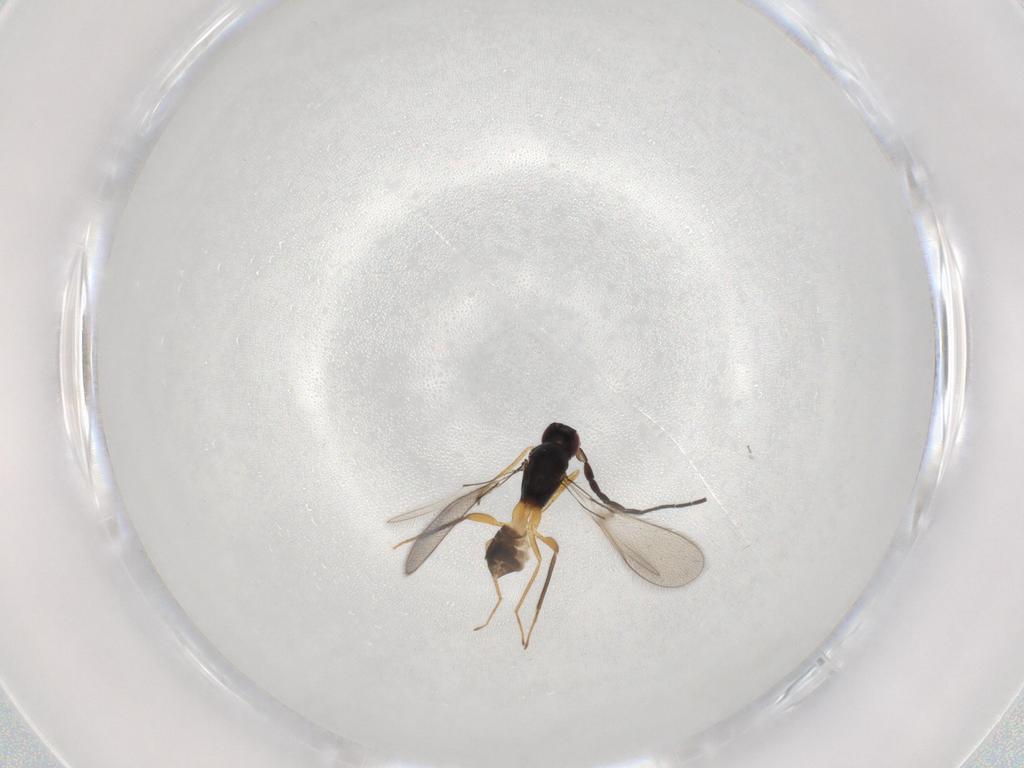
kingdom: Animalia
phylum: Arthropoda
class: Insecta
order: Hymenoptera
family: Mymaridae
